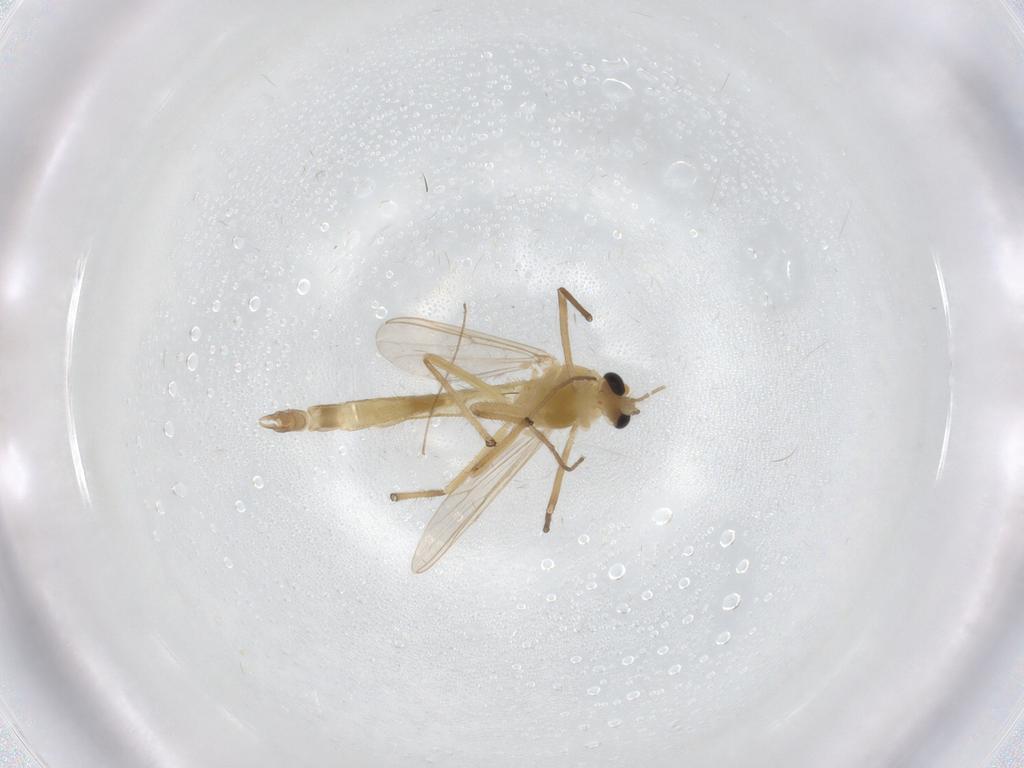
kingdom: Animalia
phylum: Arthropoda
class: Insecta
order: Diptera
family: Chironomidae
